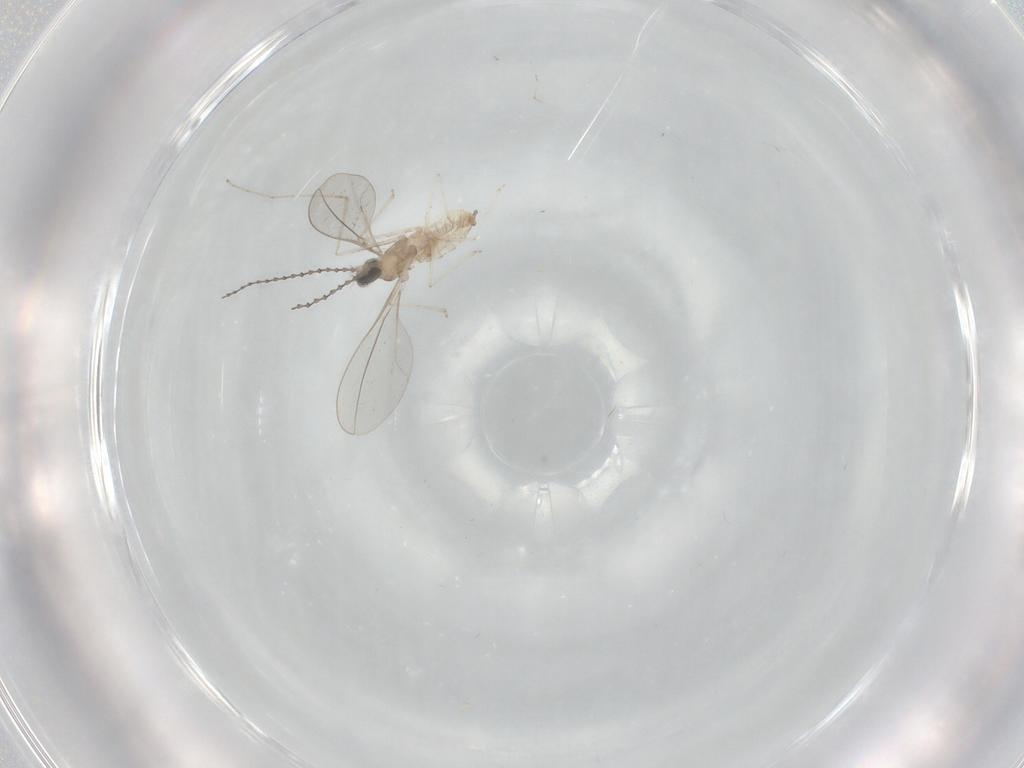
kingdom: Animalia
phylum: Arthropoda
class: Insecta
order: Diptera
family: Cecidomyiidae
